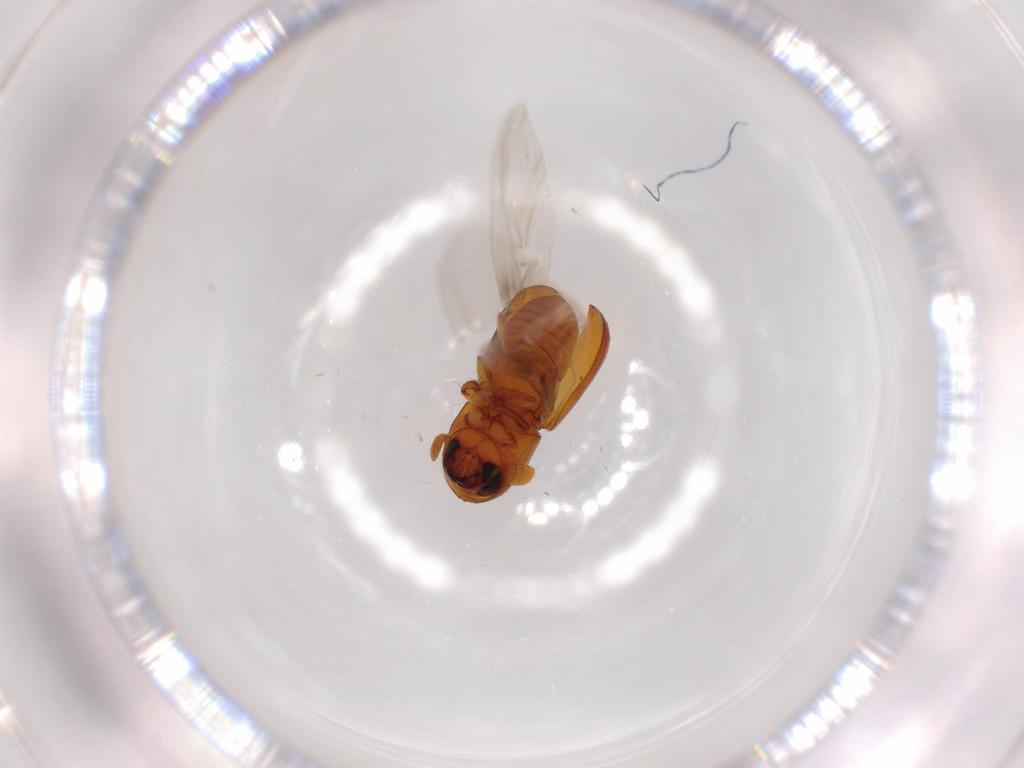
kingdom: Animalia
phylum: Arthropoda
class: Insecta
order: Coleoptera
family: Curculionidae
